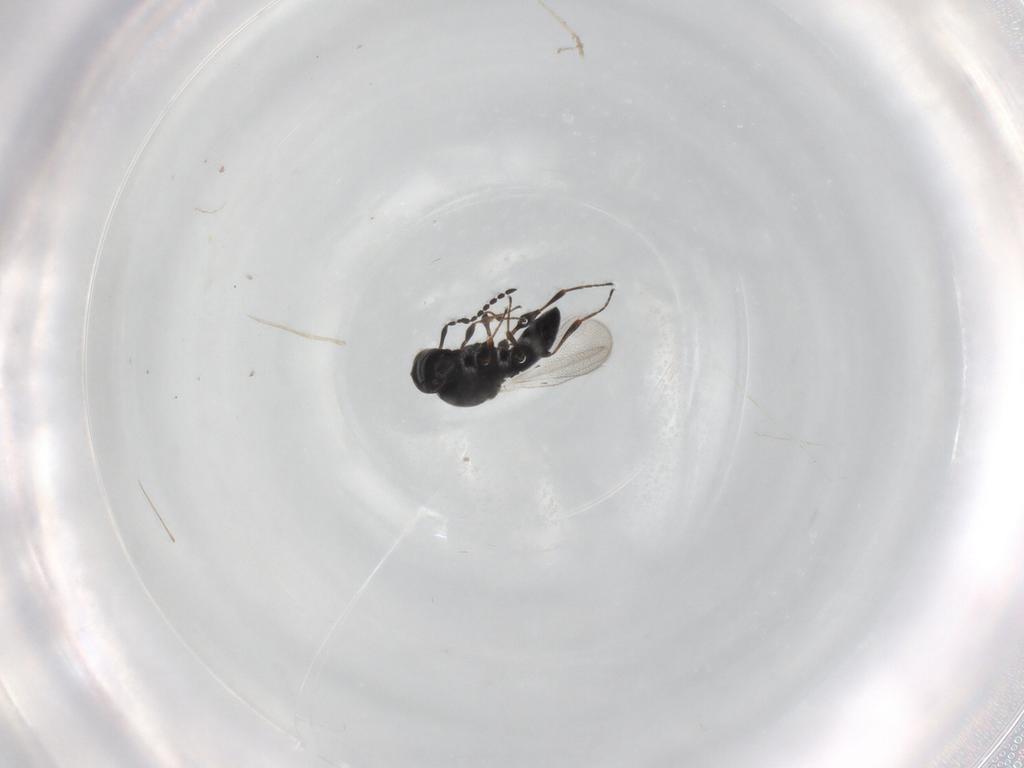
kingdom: Animalia
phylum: Arthropoda
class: Insecta
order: Hymenoptera
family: Platygastridae
